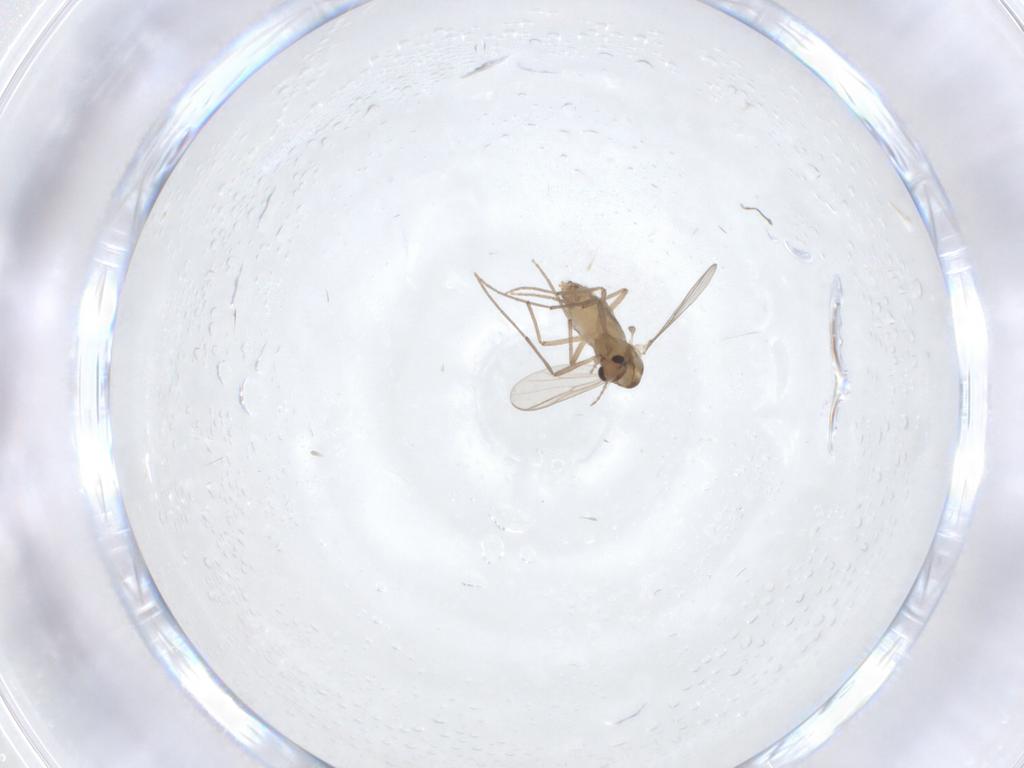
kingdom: Animalia
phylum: Arthropoda
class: Insecta
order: Diptera
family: Chironomidae
